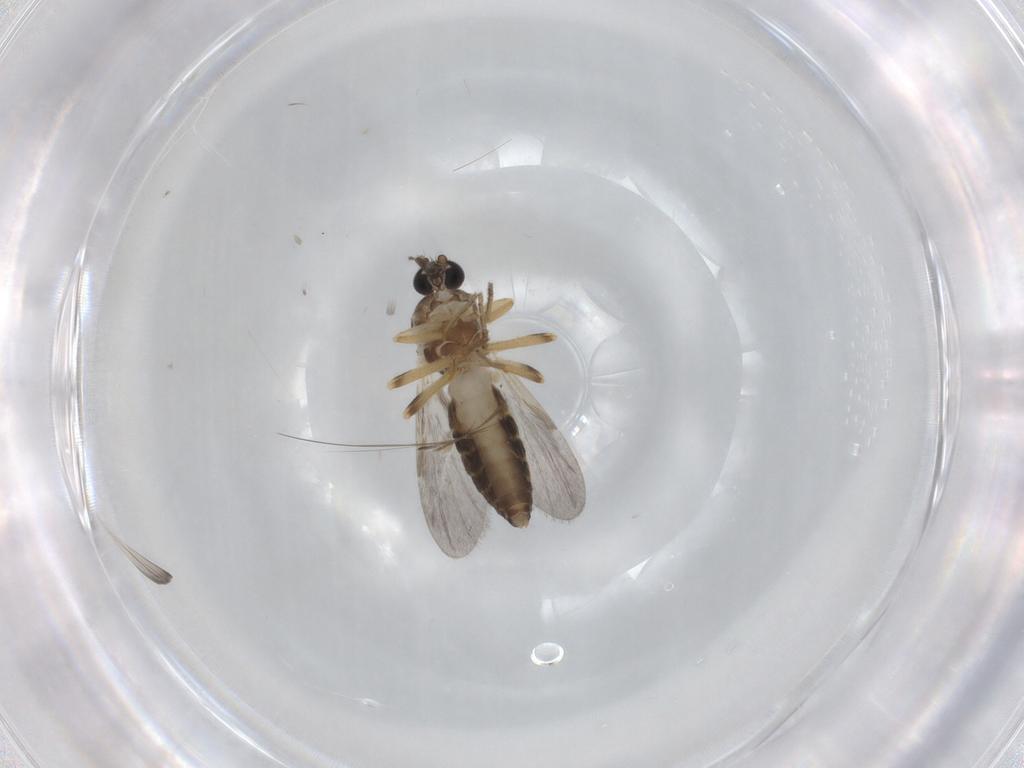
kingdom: Animalia
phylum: Arthropoda
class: Insecta
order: Diptera
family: Ceratopogonidae
